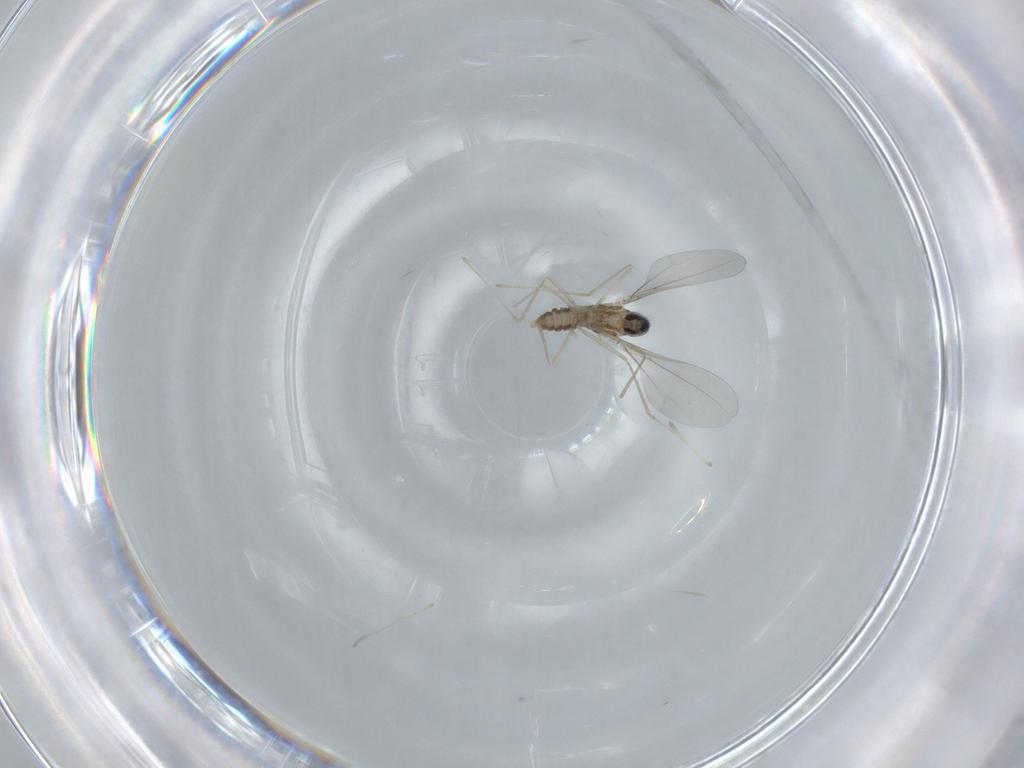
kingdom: Animalia
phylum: Arthropoda
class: Insecta
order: Diptera
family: Cecidomyiidae
